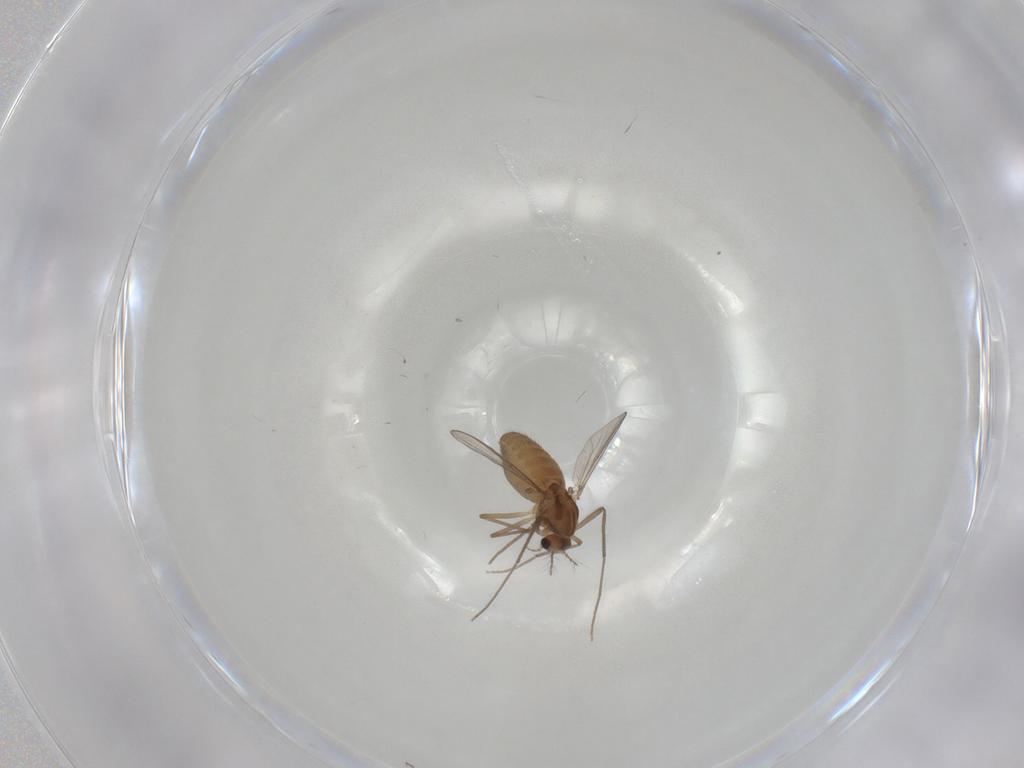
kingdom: Animalia
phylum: Arthropoda
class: Insecta
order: Diptera
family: Chironomidae
